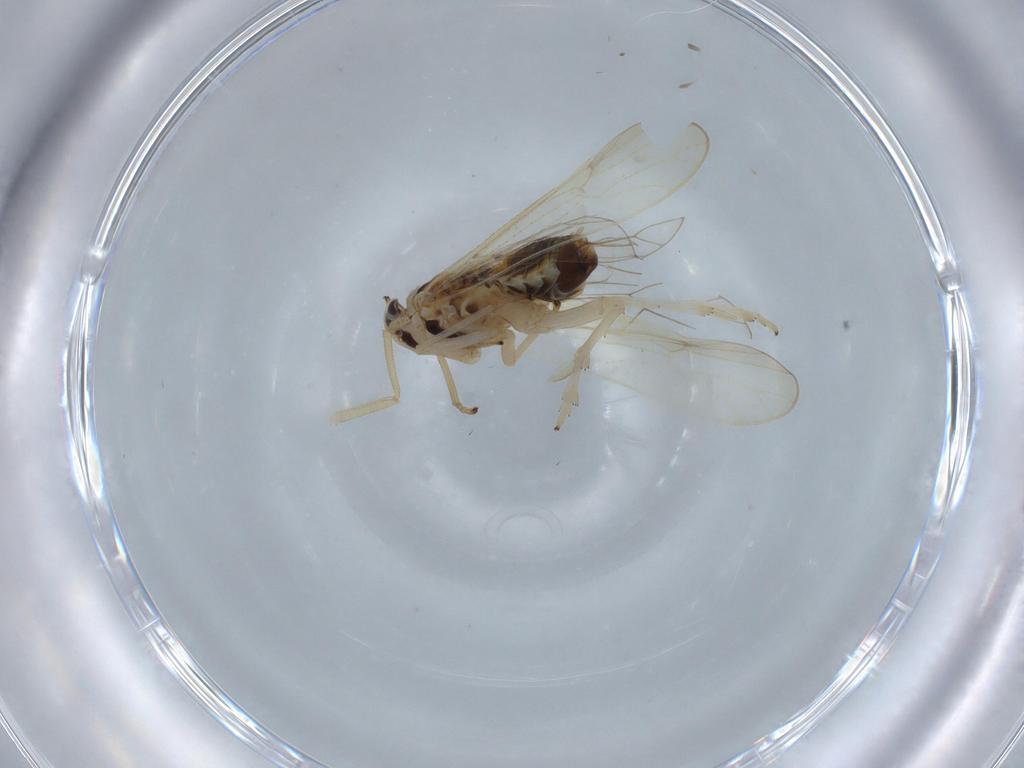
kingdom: Animalia
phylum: Arthropoda
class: Insecta
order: Hemiptera
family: Delphacidae
